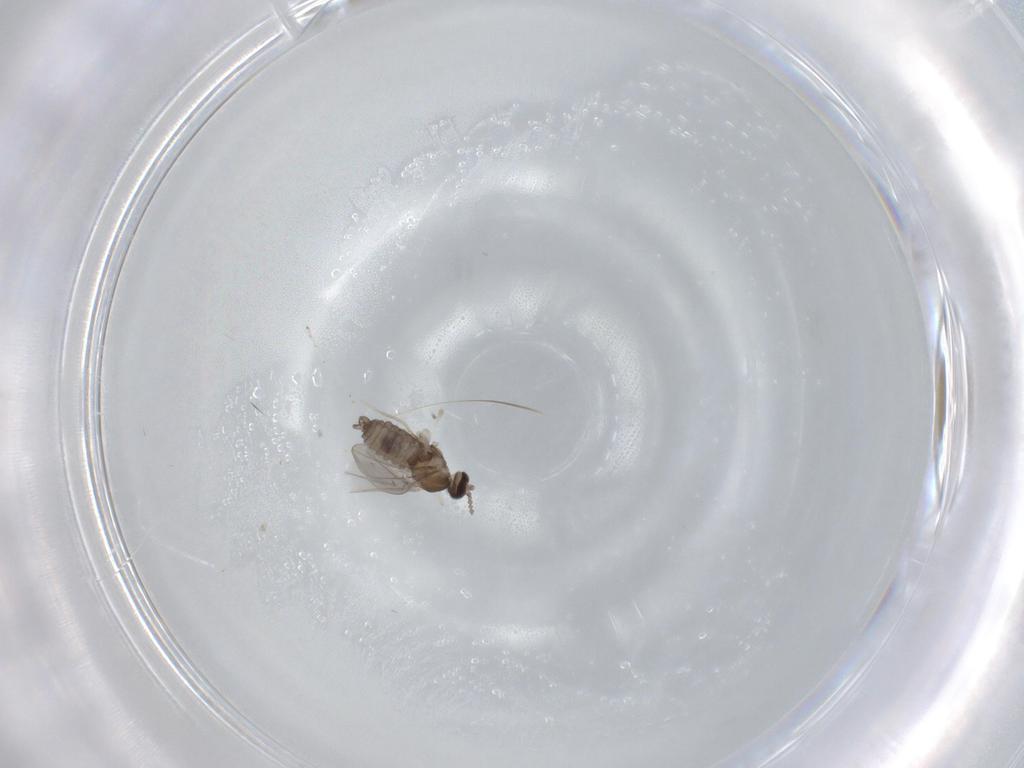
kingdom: Animalia
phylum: Arthropoda
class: Insecta
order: Diptera
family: Cecidomyiidae
